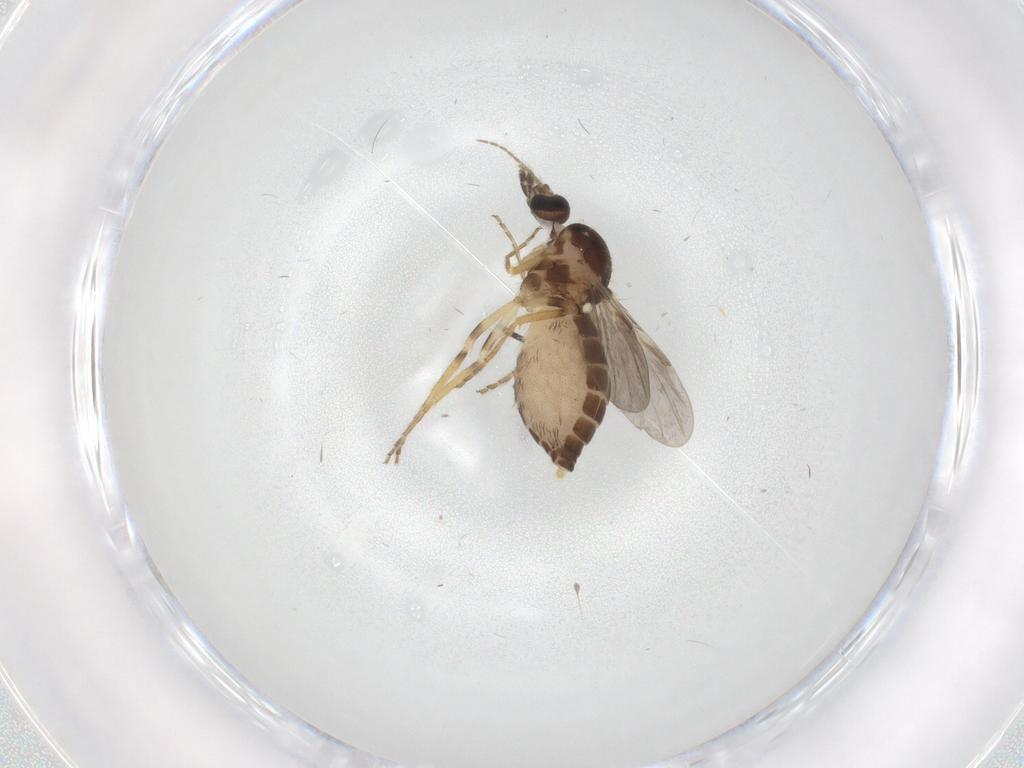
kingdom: Animalia
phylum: Arthropoda
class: Insecta
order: Diptera
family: Ceratopogonidae
